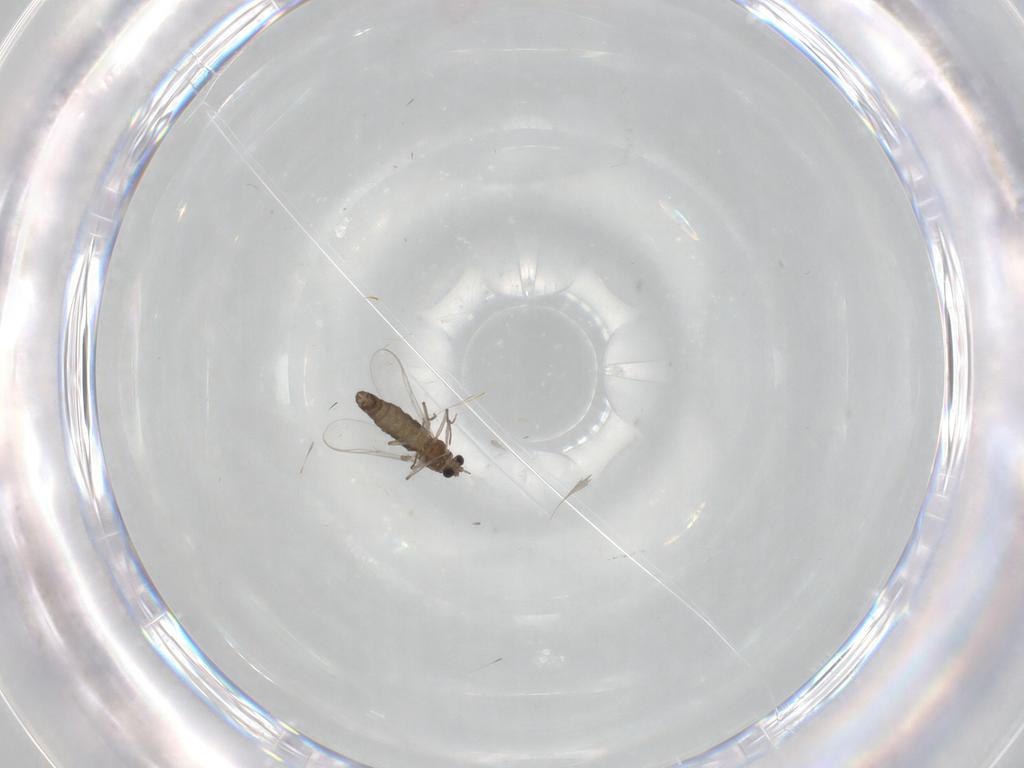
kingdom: Animalia
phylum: Arthropoda
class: Insecta
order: Diptera
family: Chironomidae
